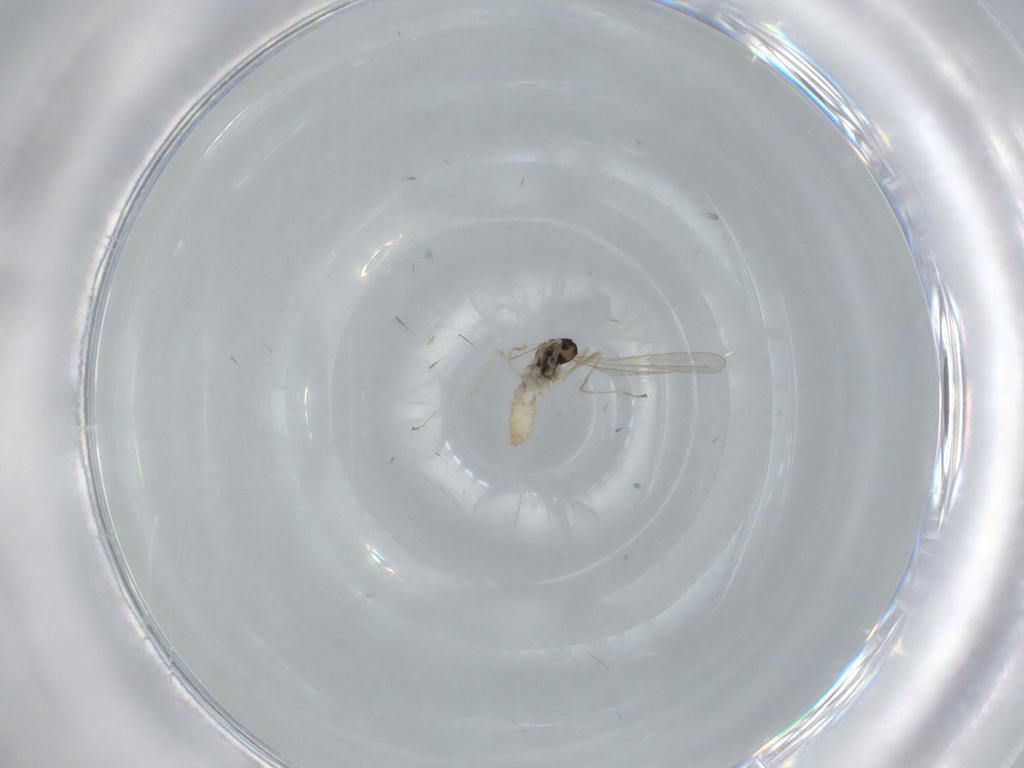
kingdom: Animalia
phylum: Arthropoda
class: Insecta
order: Diptera
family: Cecidomyiidae
